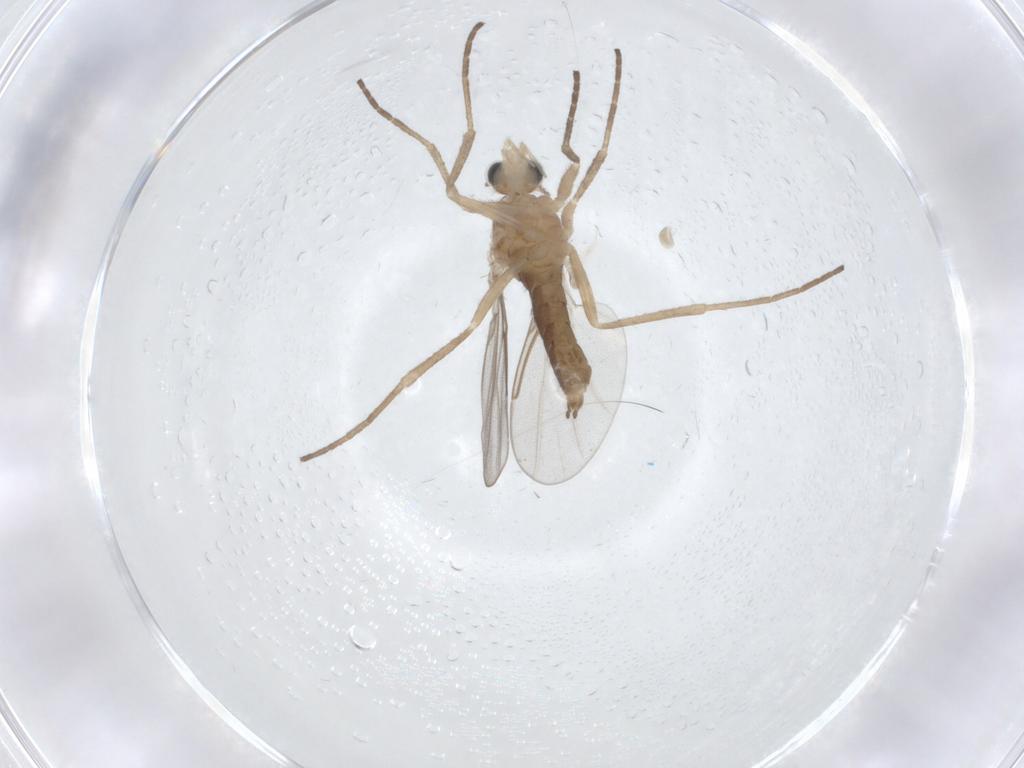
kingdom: Animalia
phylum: Arthropoda
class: Insecta
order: Diptera
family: Cecidomyiidae
